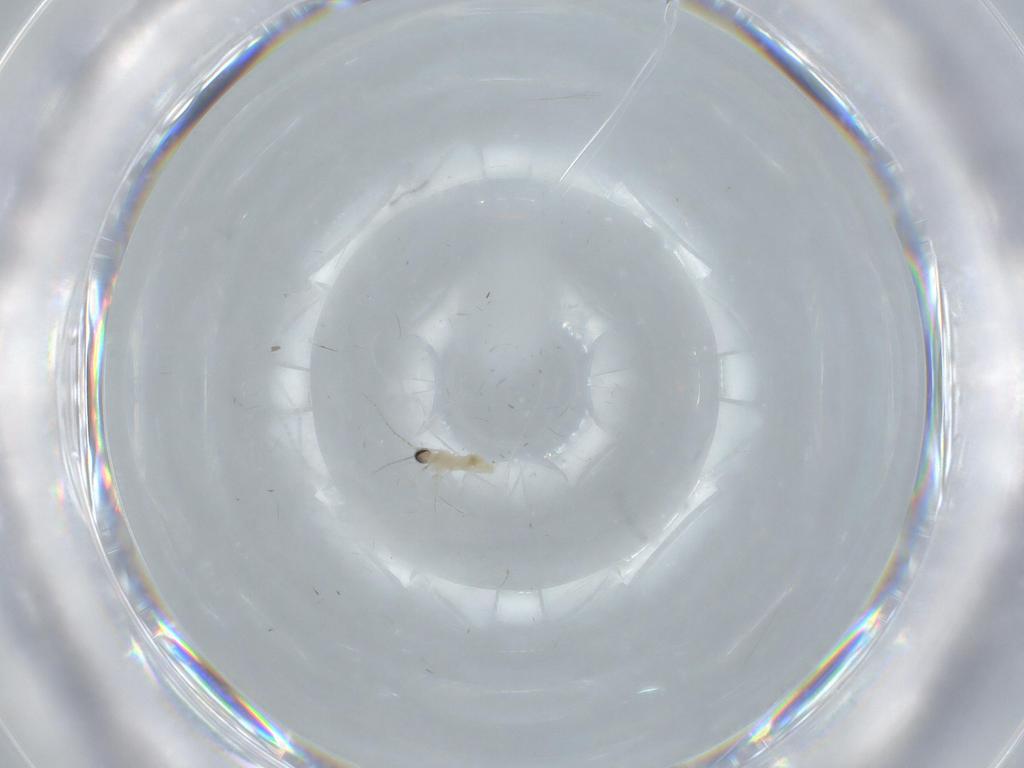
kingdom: Animalia
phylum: Arthropoda
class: Insecta
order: Diptera
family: Cecidomyiidae
